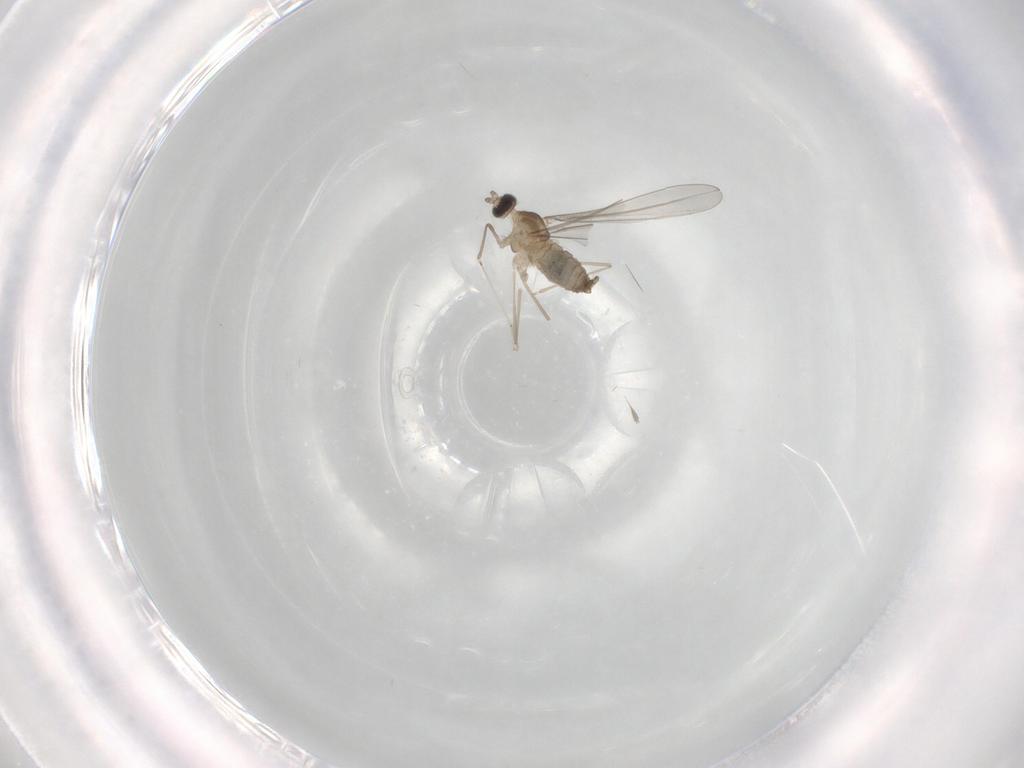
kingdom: Animalia
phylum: Arthropoda
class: Insecta
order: Diptera
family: Cecidomyiidae
